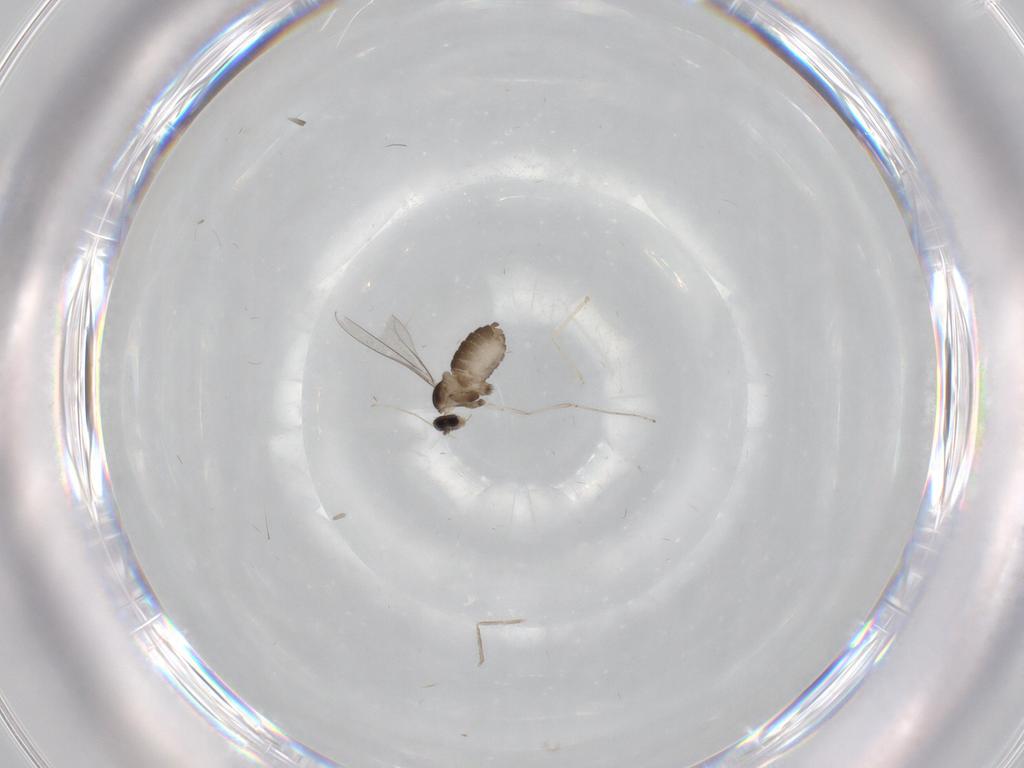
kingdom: Animalia
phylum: Arthropoda
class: Insecta
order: Diptera
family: Cecidomyiidae
